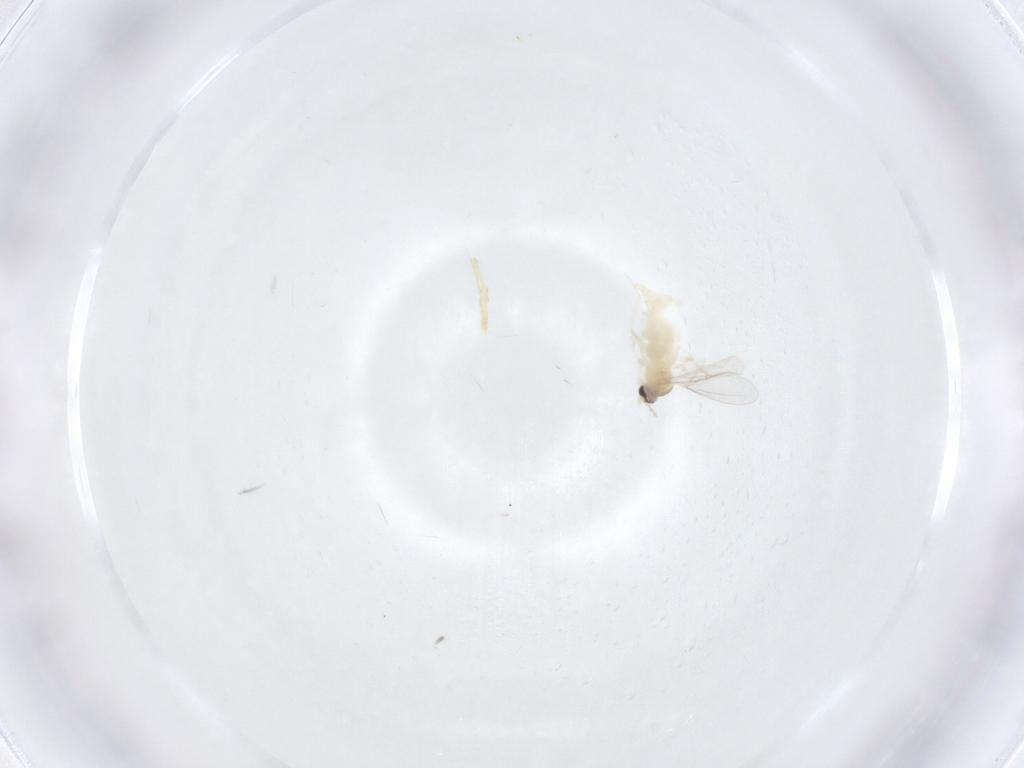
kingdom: Animalia
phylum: Arthropoda
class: Insecta
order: Diptera
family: Cecidomyiidae
